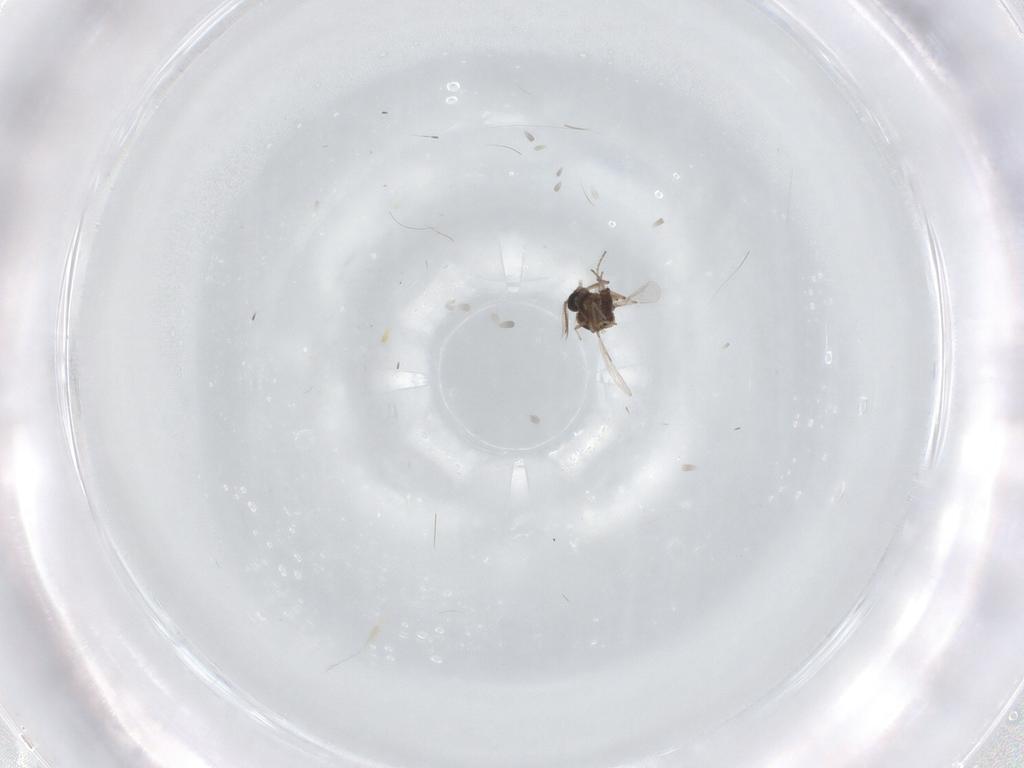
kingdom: Animalia
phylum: Arthropoda
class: Insecta
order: Diptera
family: Ceratopogonidae
